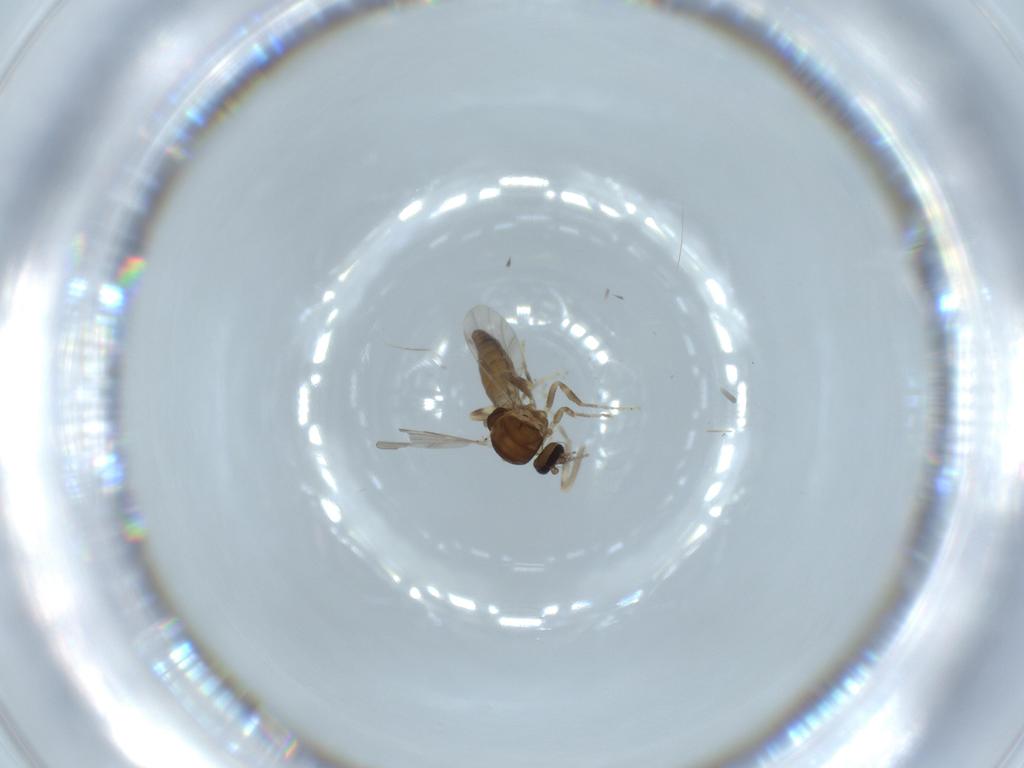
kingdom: Animalia
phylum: Arthropoda
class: Insecta
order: Diptera
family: Ceratopogonidae
